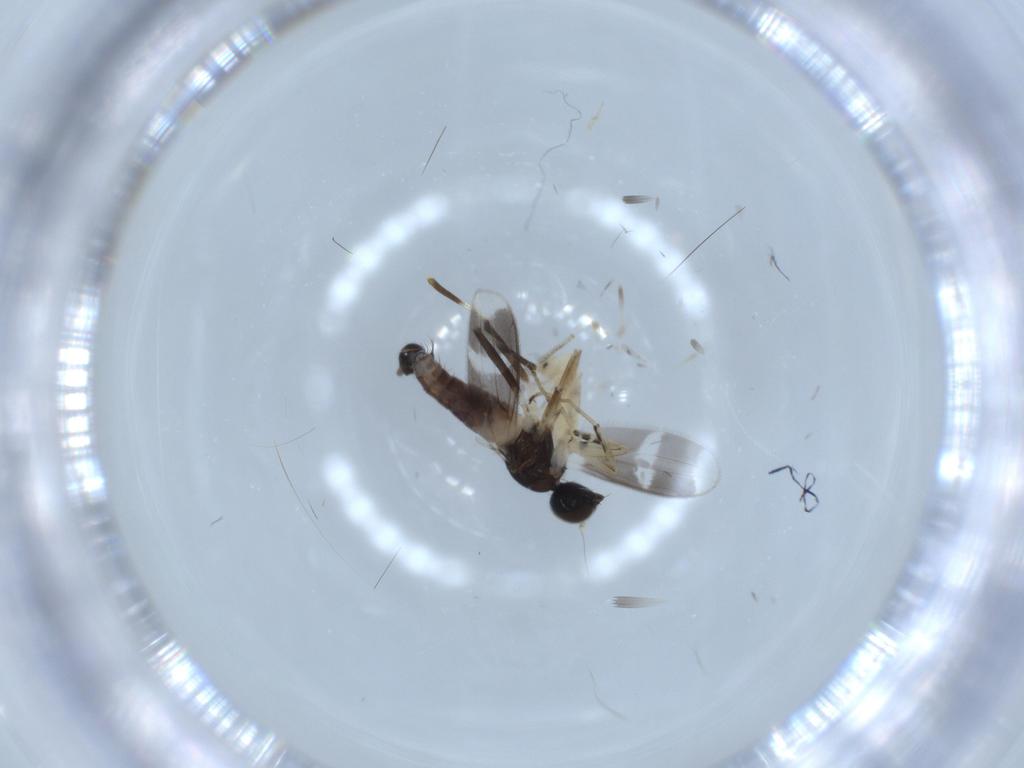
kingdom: Animalia
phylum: Arthropoda
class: Insecta
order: Diptera
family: Hybotidae
